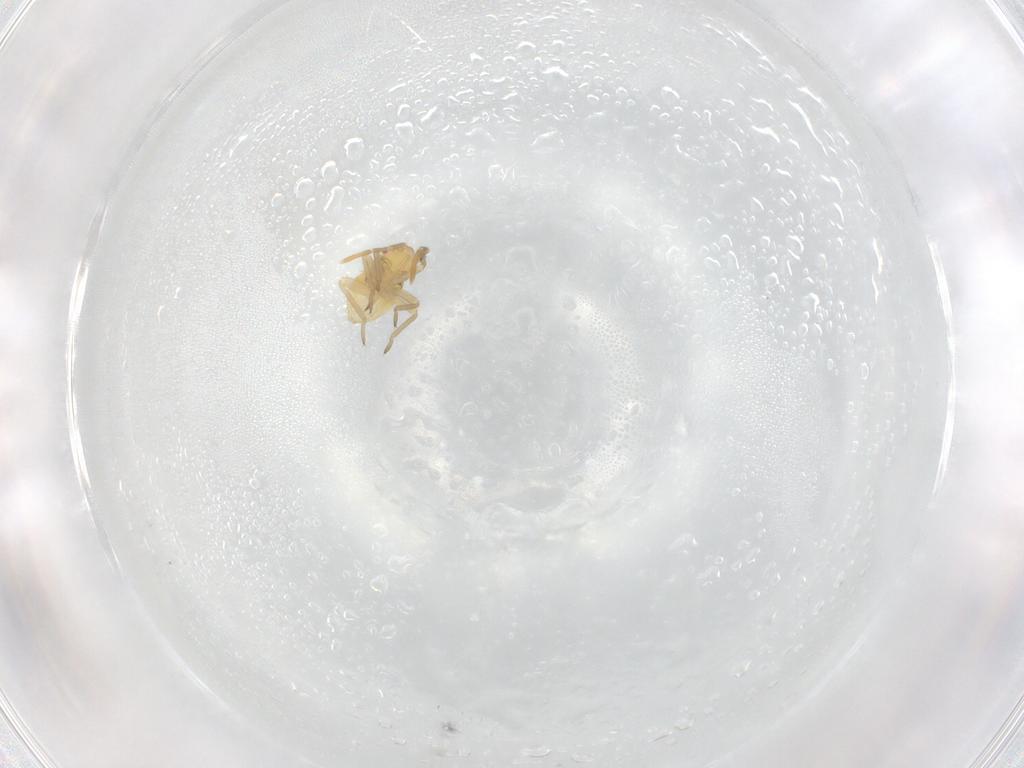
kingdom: Animalia
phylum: Arthropoda
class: Insecta
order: Hemiptera
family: Miridae
